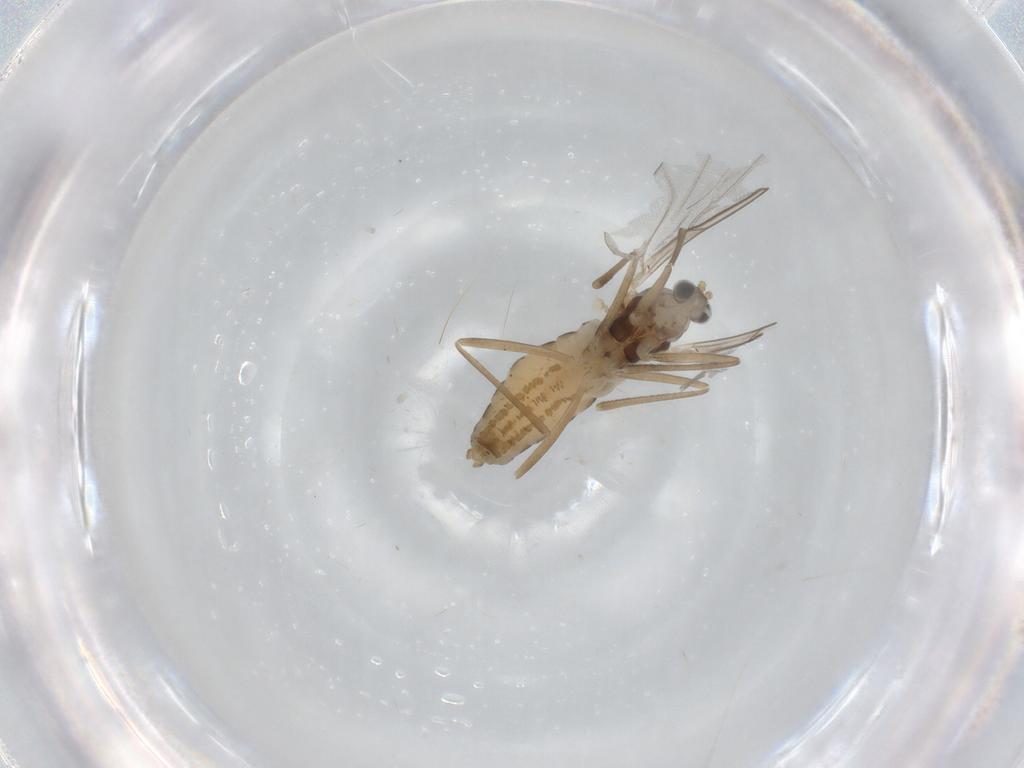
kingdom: Animalia
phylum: Arthropoda
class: Insecta
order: Diptera
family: Cecidomyiidae
